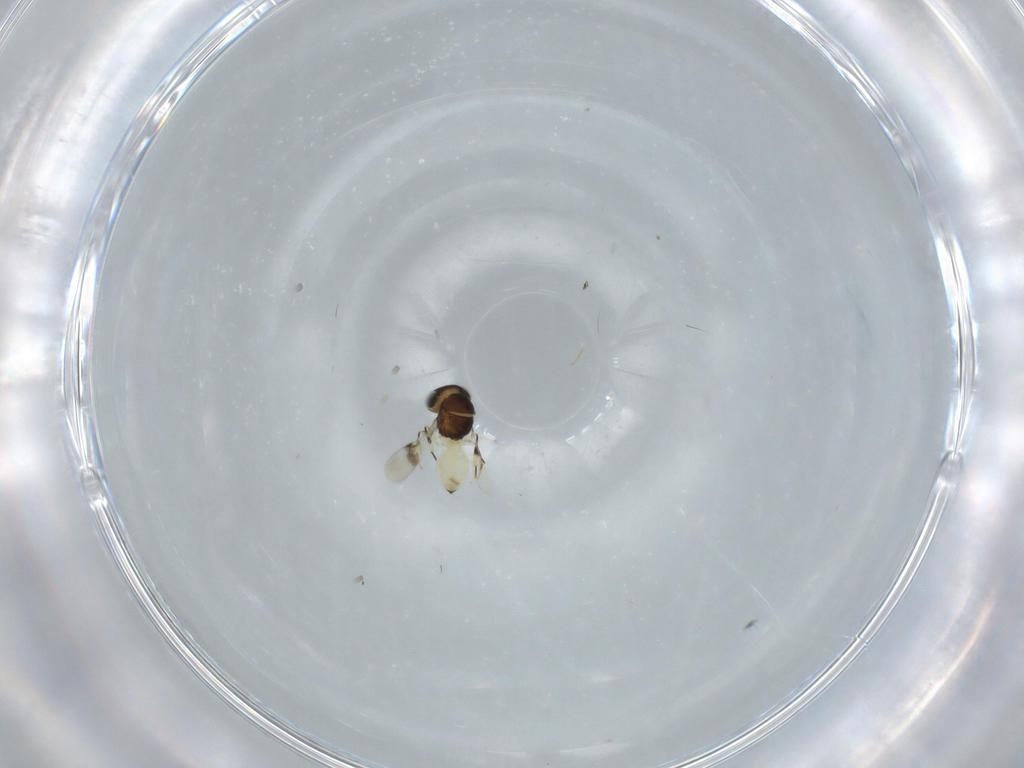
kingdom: Animalia
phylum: Arthropoda
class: Insecta
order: Hymenoptera
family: Scelionidae
